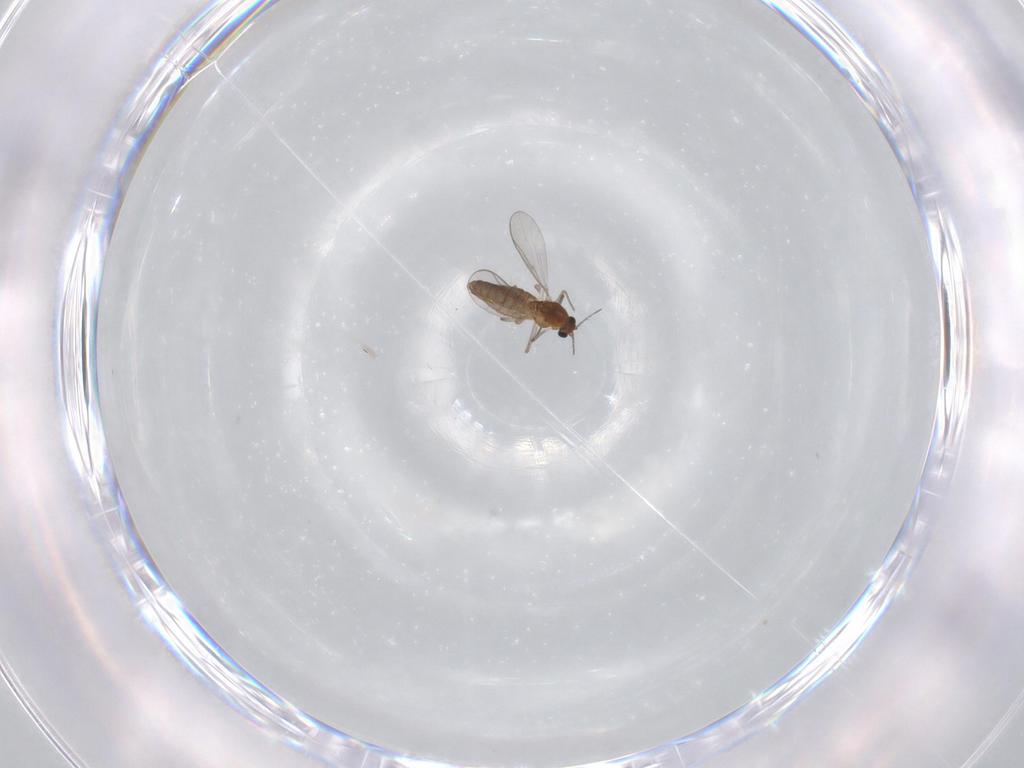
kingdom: Animalia
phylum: Arthropoda
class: Insecta
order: Diptera
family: Chironomidae
